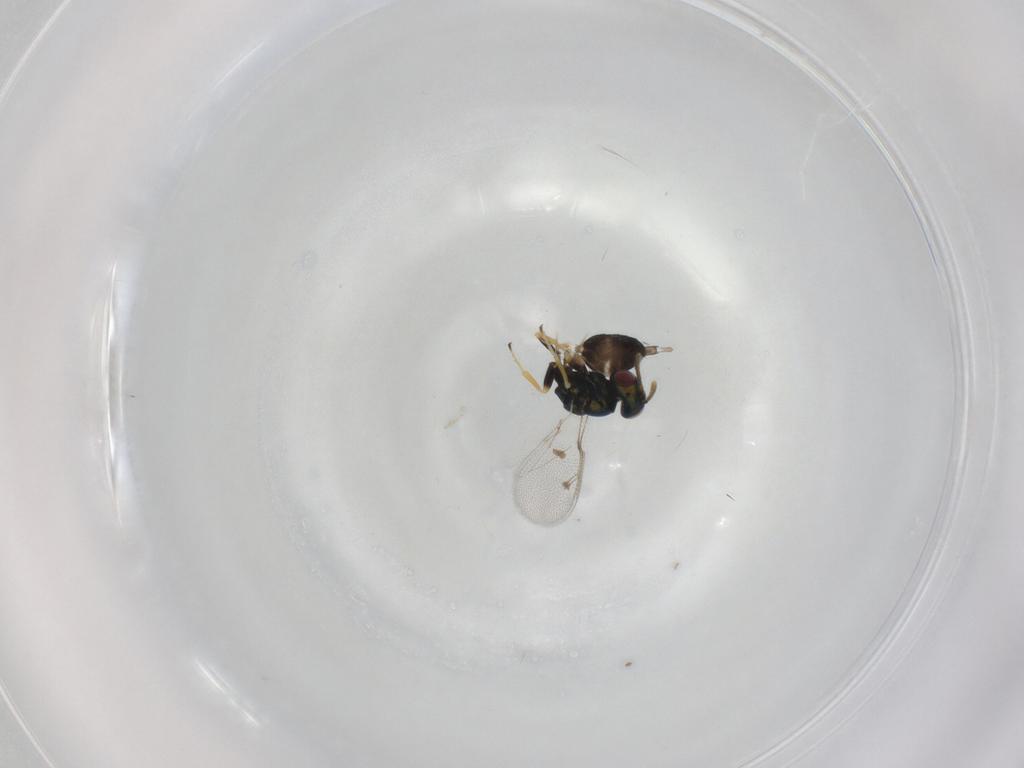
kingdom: Animalia
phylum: Arthropoda
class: Insecta
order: Hymenoptera
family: Pteromalidae
